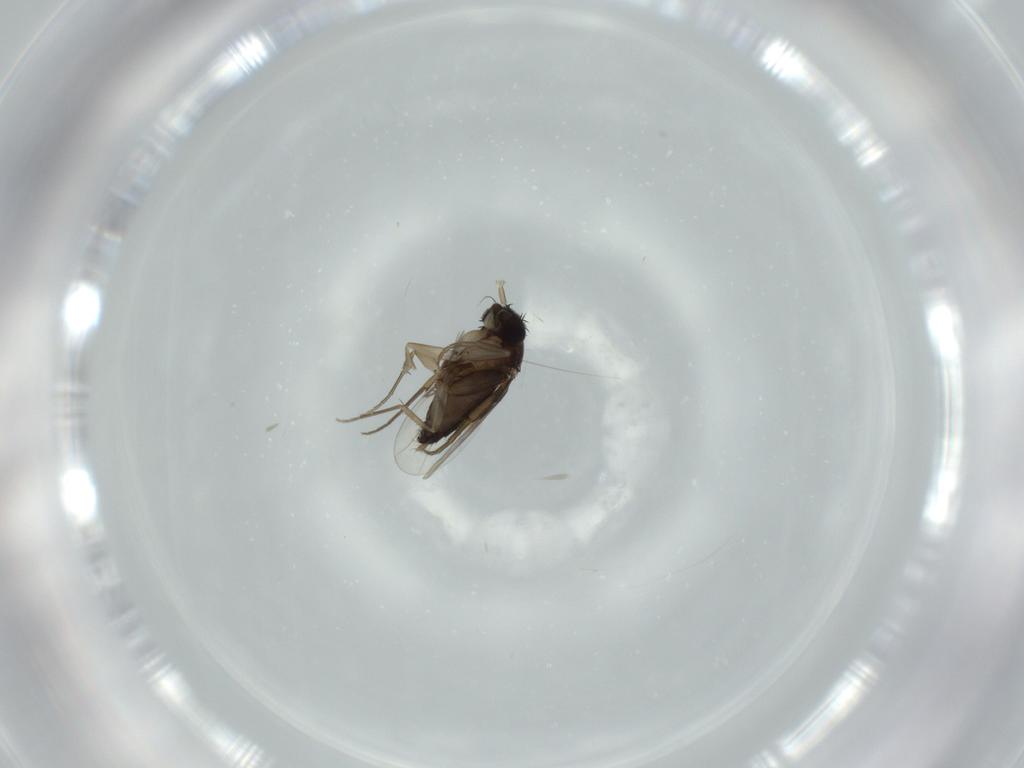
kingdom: Animalia
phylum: Arthropoda
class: Insecta
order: Diptera
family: Phoridae
